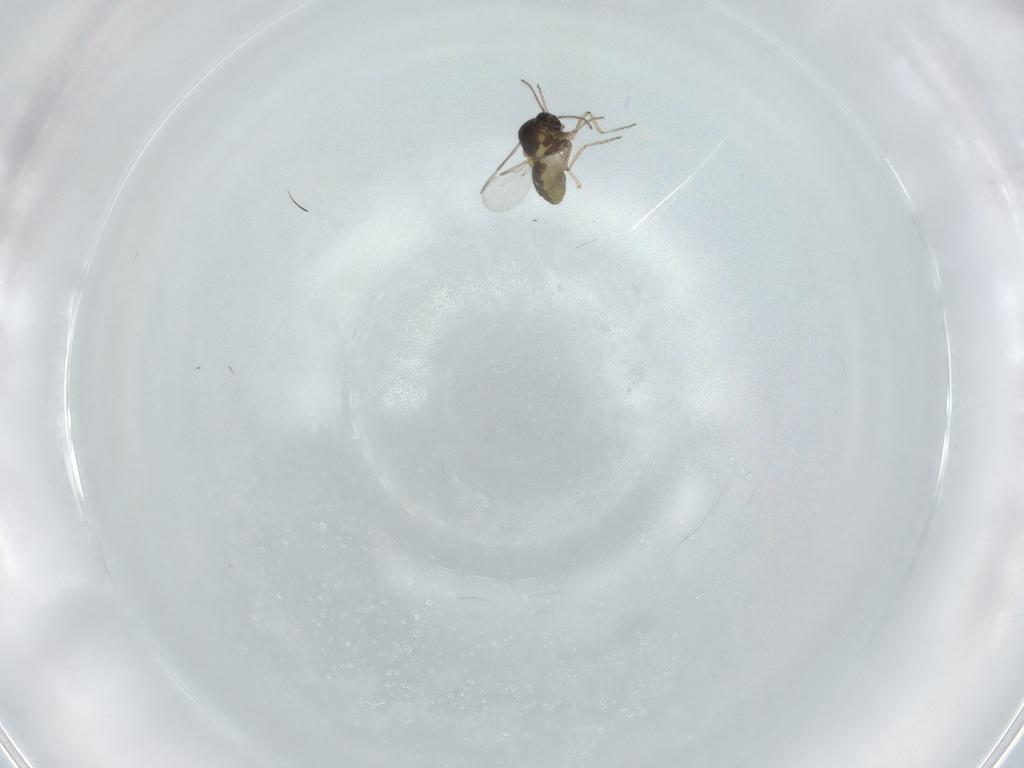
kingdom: Animalia
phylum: Arthropoda
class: Insecta
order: Diptera
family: Ceratopogonidae
